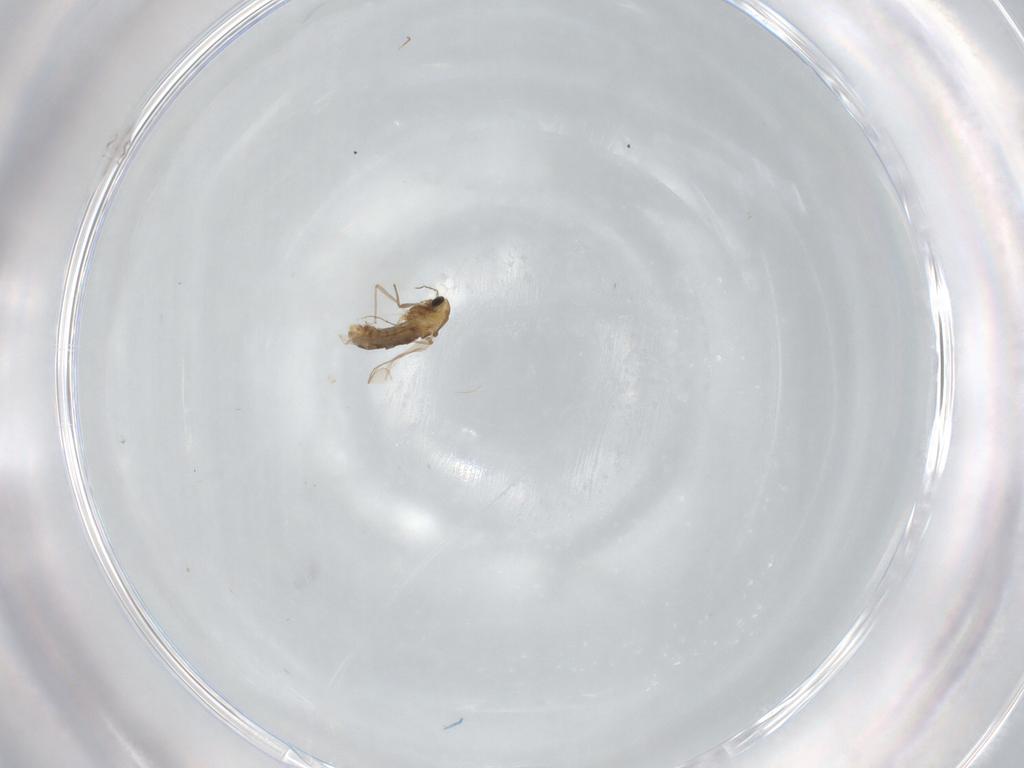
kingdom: Animalia
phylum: Arthropoda
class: Insecta
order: Diptera
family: Chironomidae
